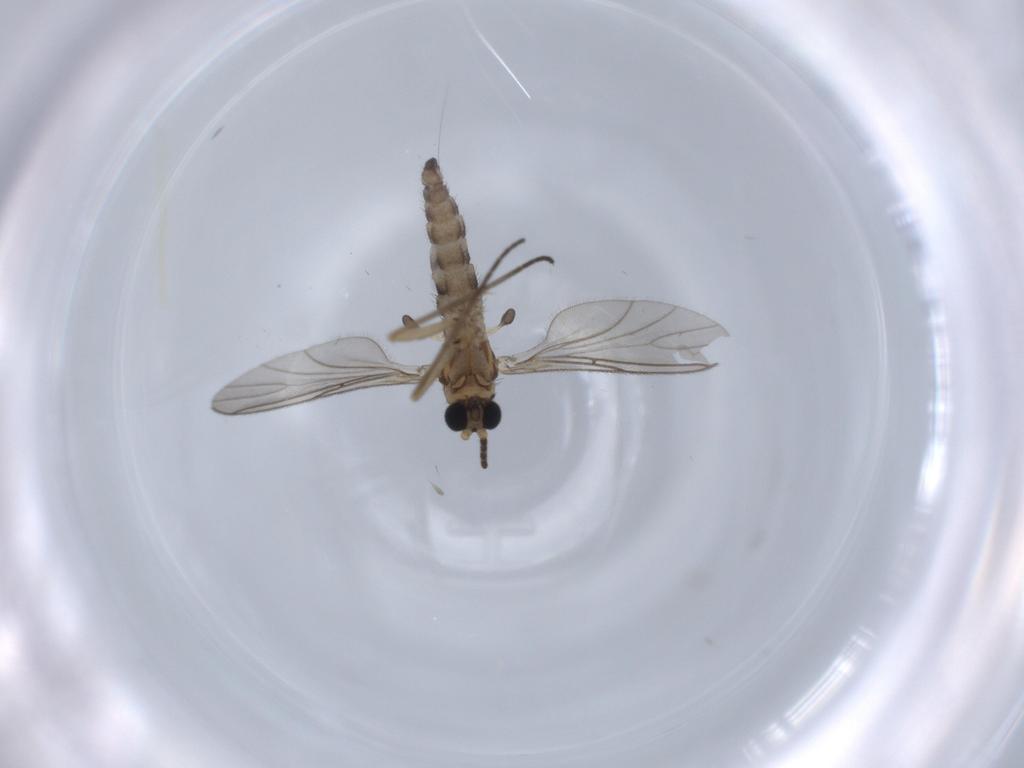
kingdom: Animalia
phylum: Arthropoda
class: Insecta
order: Diptera
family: Sciaridae
